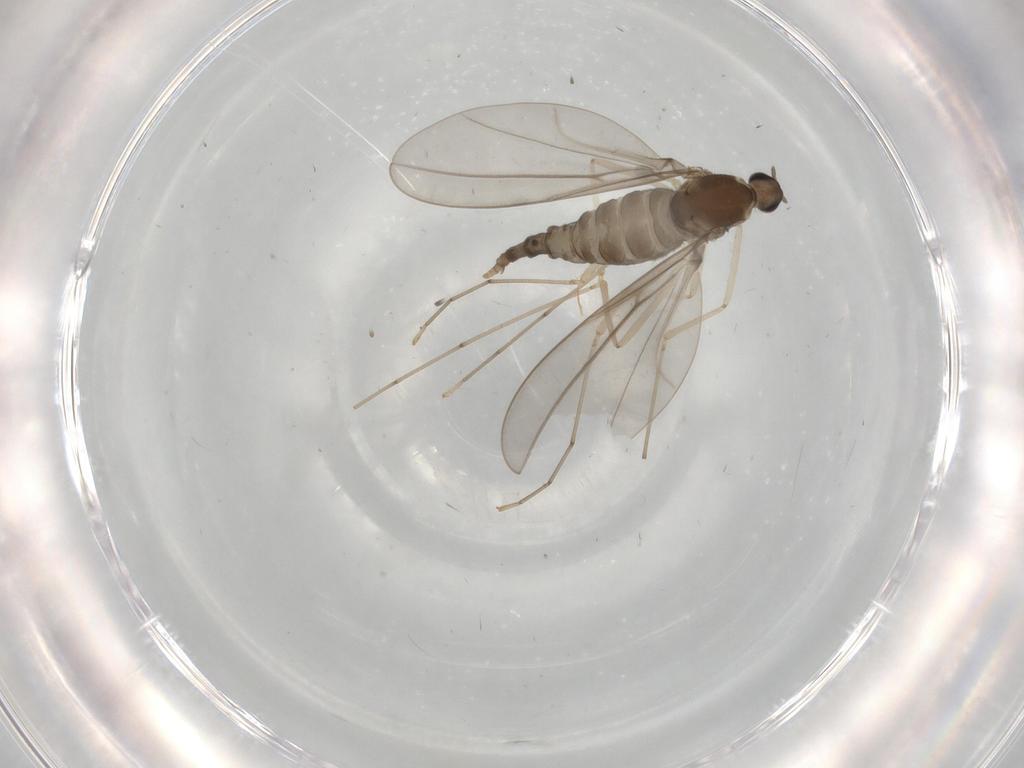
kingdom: Animalia
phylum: Arthropoda
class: Insecta
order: Diptera
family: Cecidomyiidae
